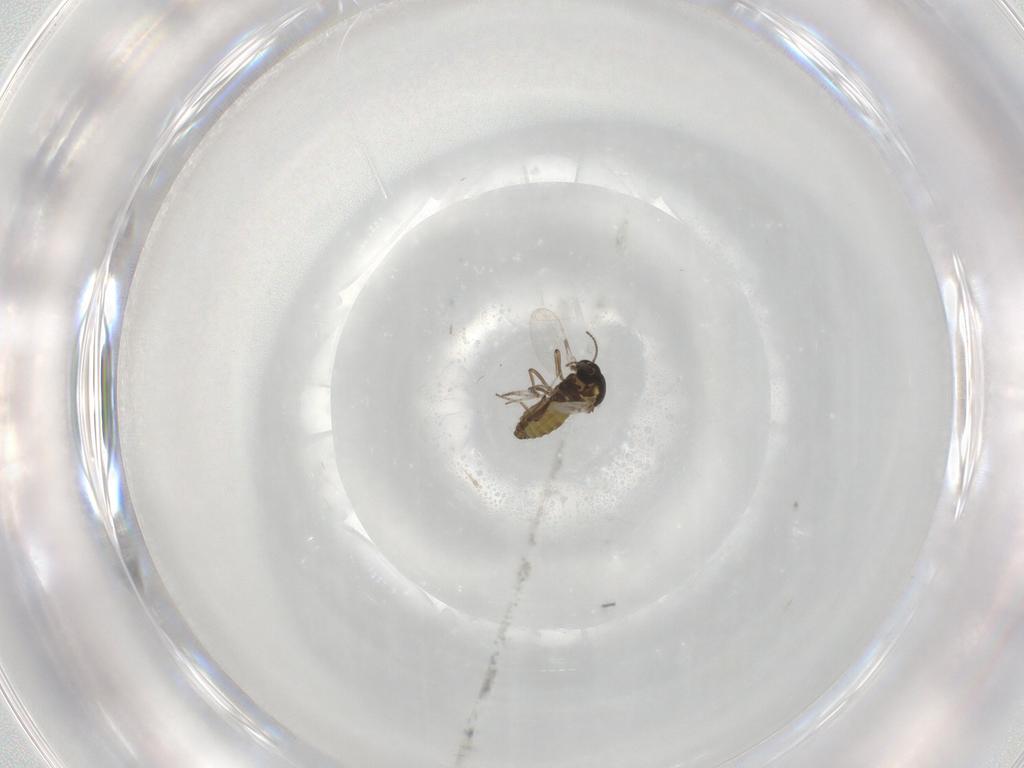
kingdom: Animalia
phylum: Arthropoda
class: Insecta
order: Diptera
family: Ceratopogonidae
